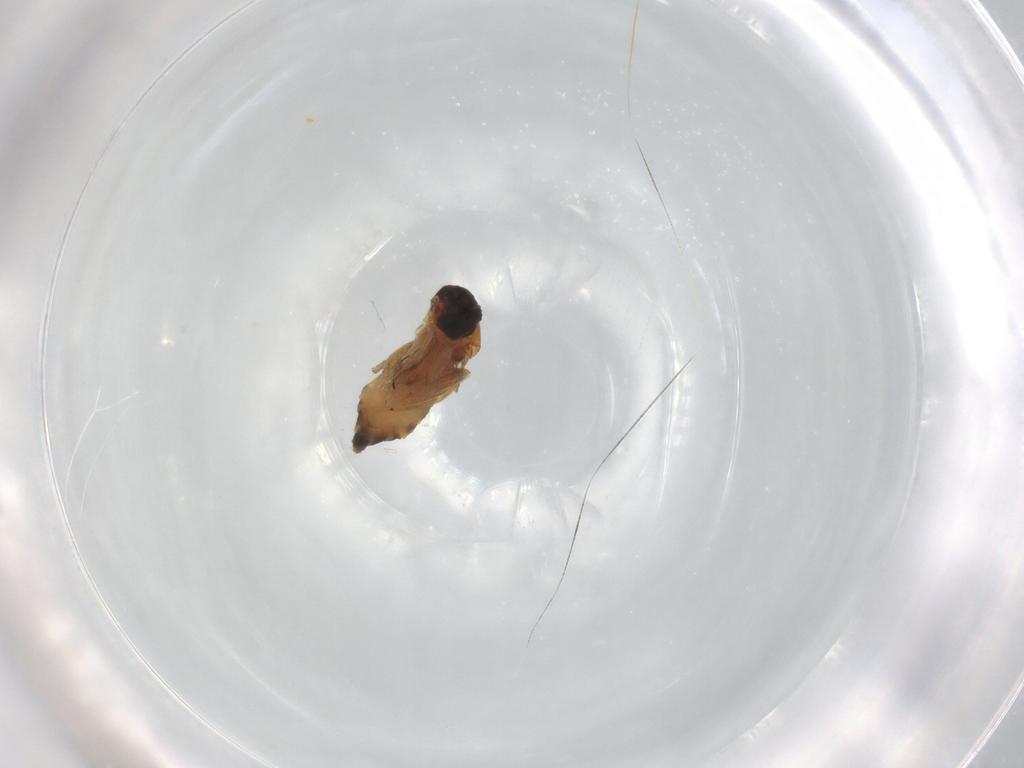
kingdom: Animalia
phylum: Arthropoda
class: Insecta
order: Diptera
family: Phoridae
